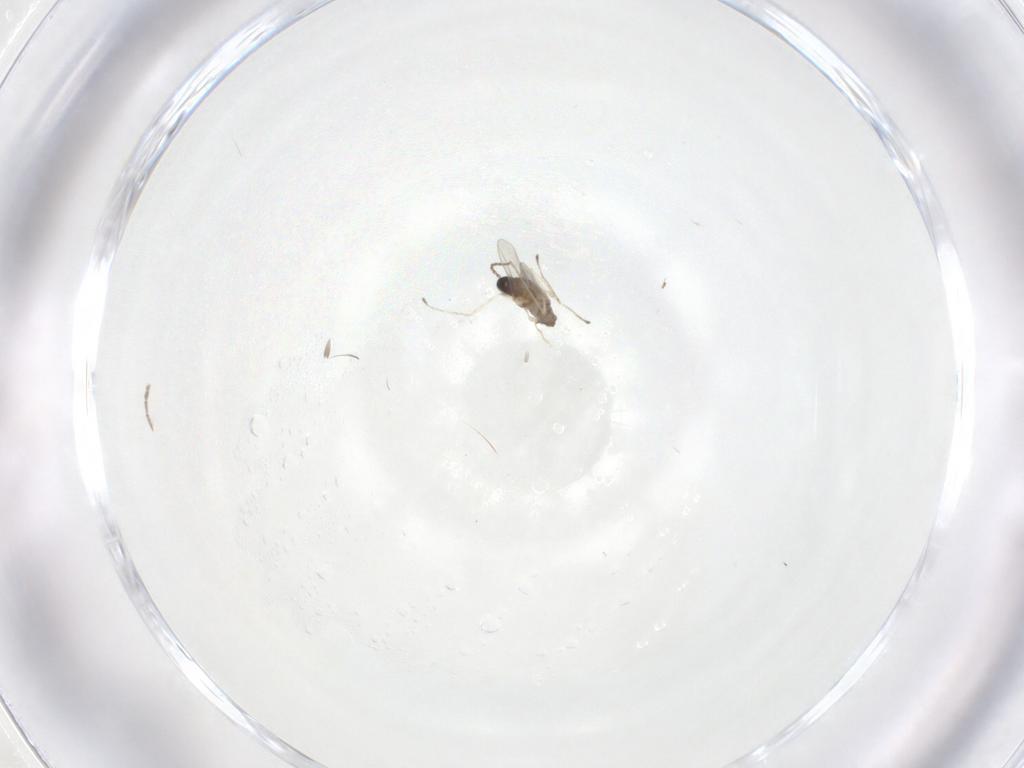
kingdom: Animalia
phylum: Arthropoda
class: Insecta
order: Diptera
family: Cecidomyiidae
